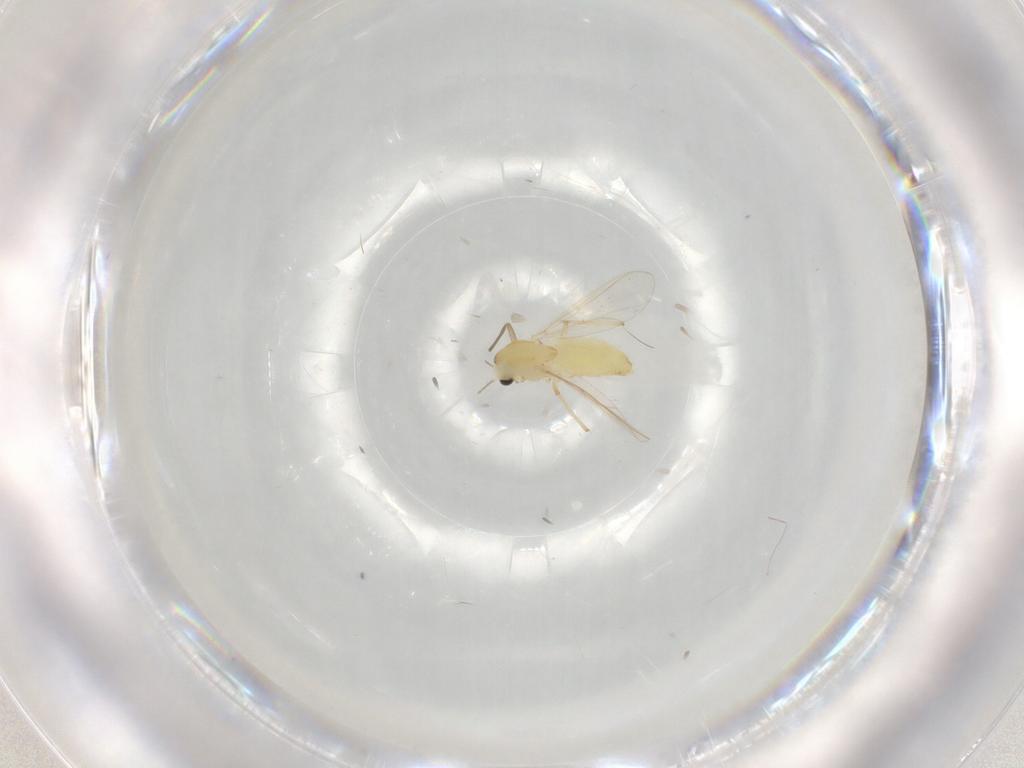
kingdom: Animalia
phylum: Arthropoda
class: Insecta
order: Diptera
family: Chironomidae
